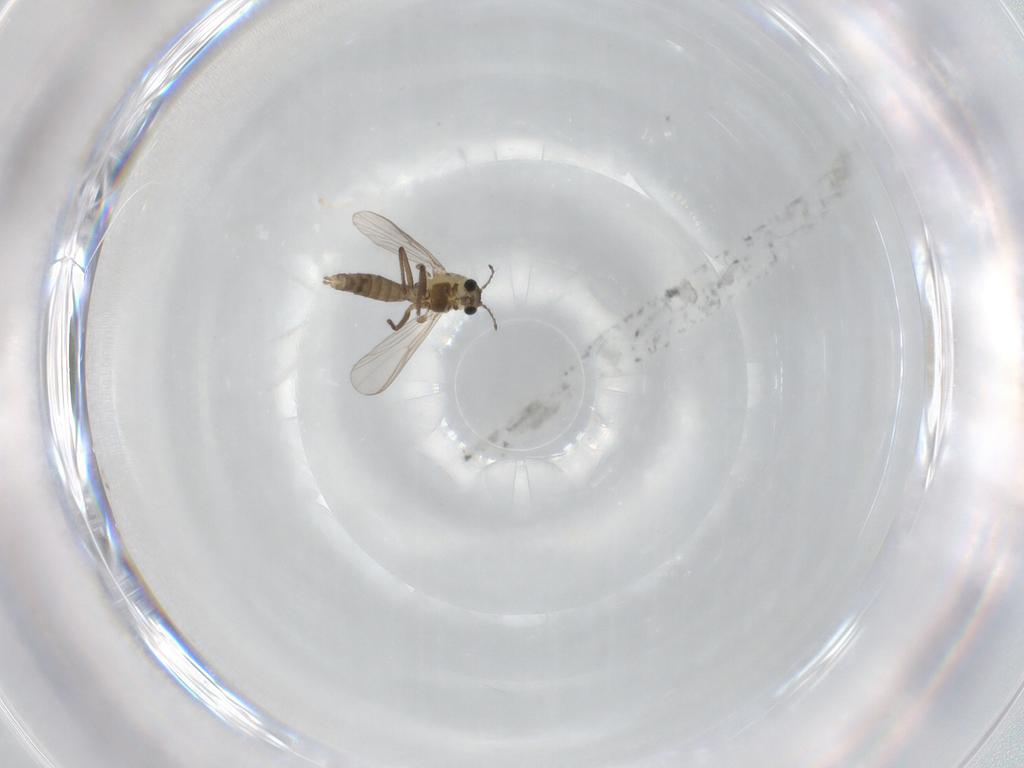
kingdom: Animalia
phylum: Arthropoda
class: Insecta
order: Diptera
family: Chironomidae
